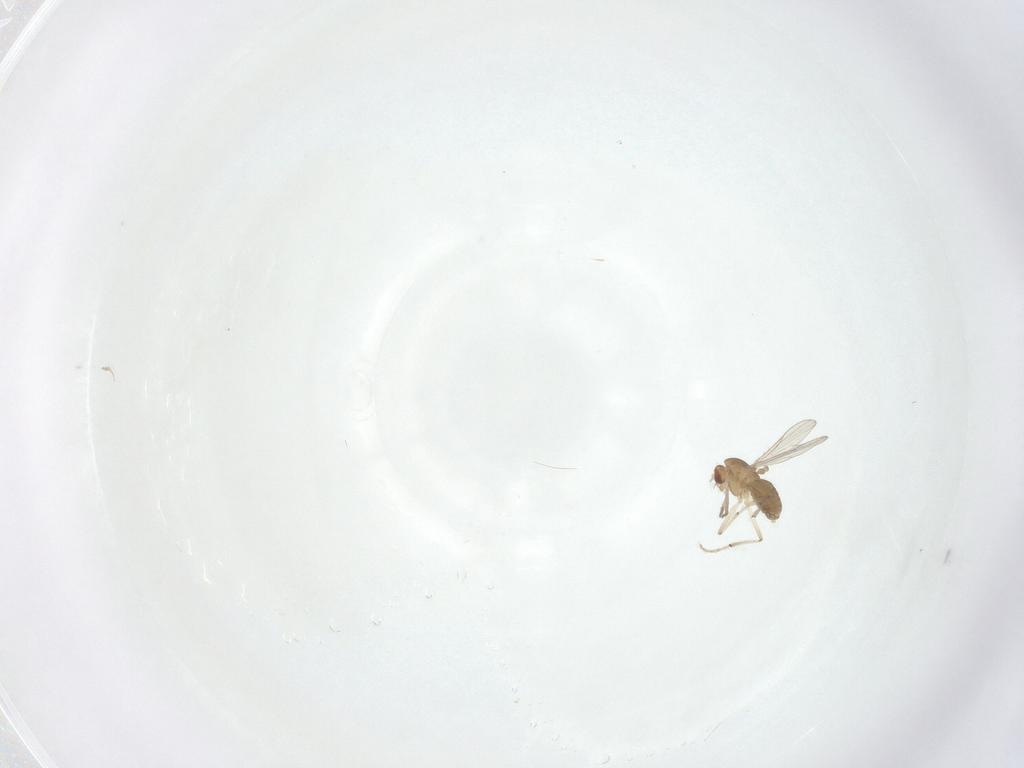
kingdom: Animalia
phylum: Arthropoda
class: Insecta
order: Diptera
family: Chironomidae
